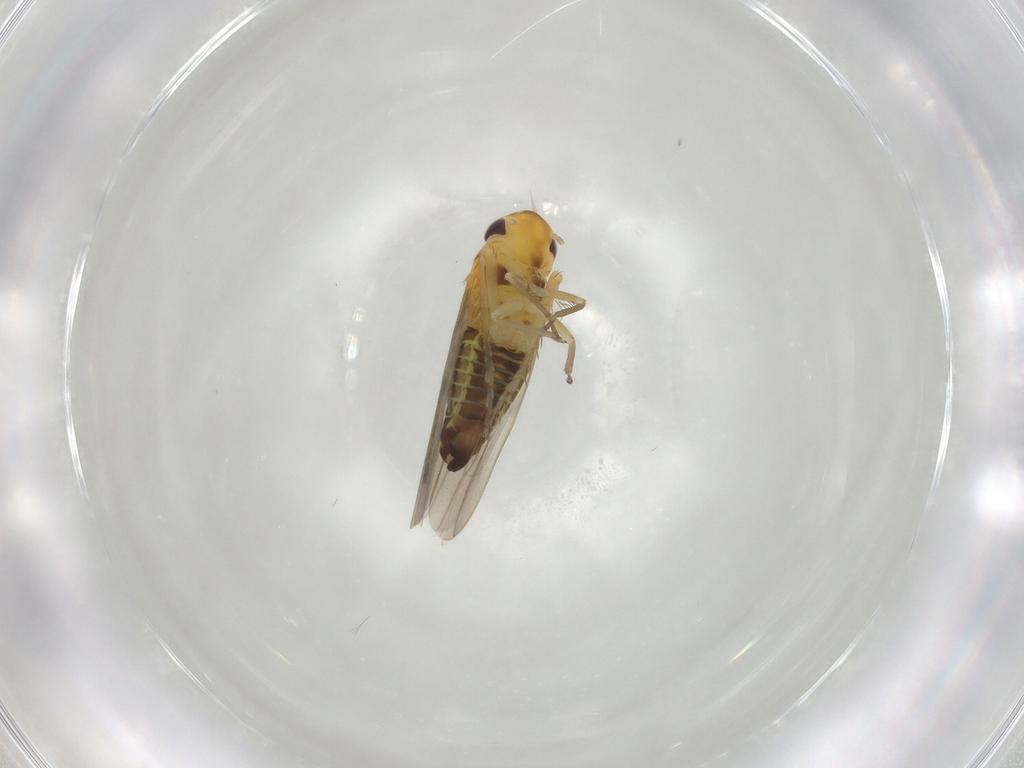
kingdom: Animalia
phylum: Arthropoda
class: Insecta
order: Hemiptera
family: Cicadellidae
